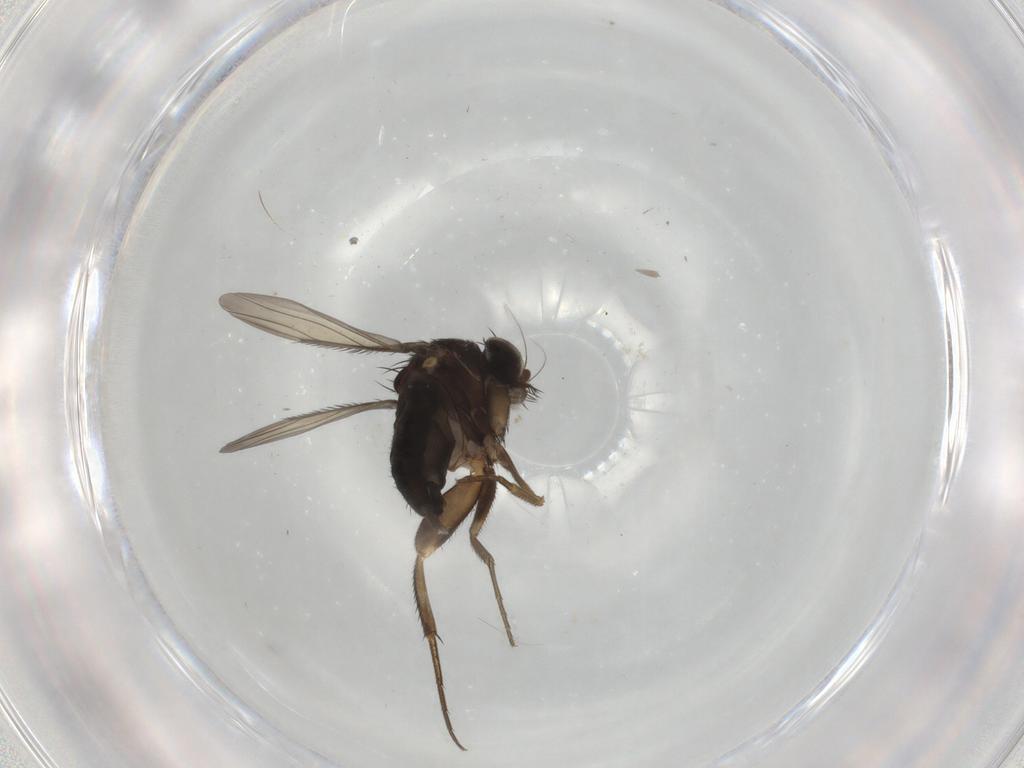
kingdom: Animalia
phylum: Arthropoda
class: Insecta
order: Diptera
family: Phoridae
